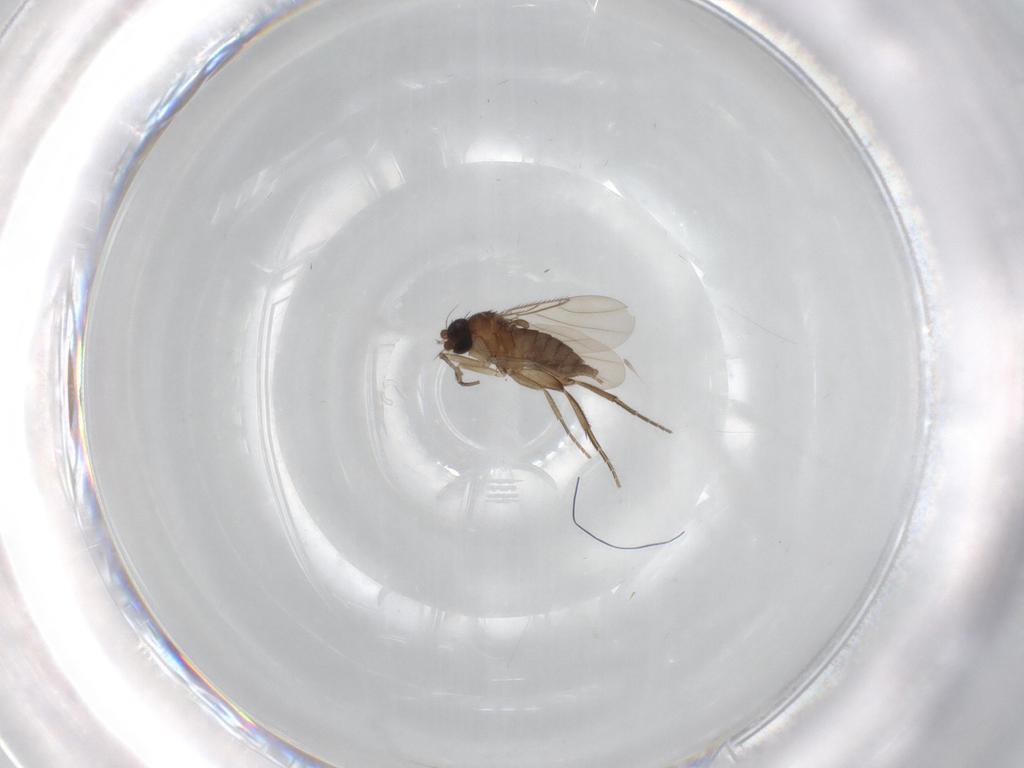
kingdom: Animalia
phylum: Arthropoda
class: Insecta
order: Diptera
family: Phoridae
